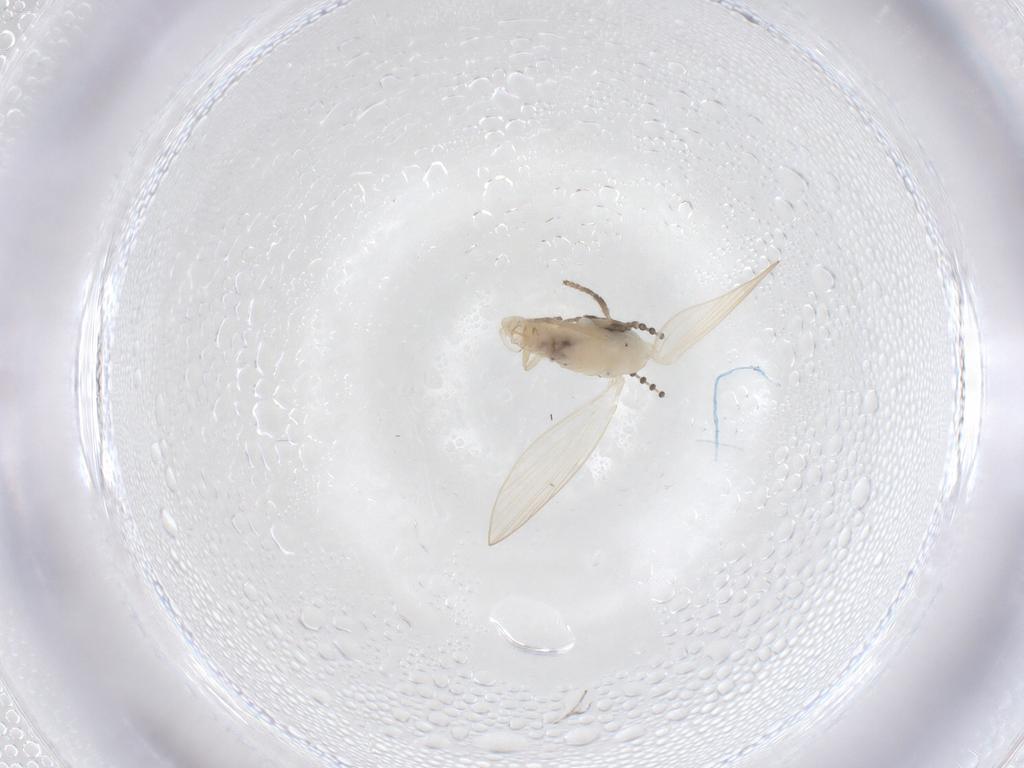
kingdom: Animalia
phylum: Arthropoda
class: Insecta
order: Diptera
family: Psychodidae
